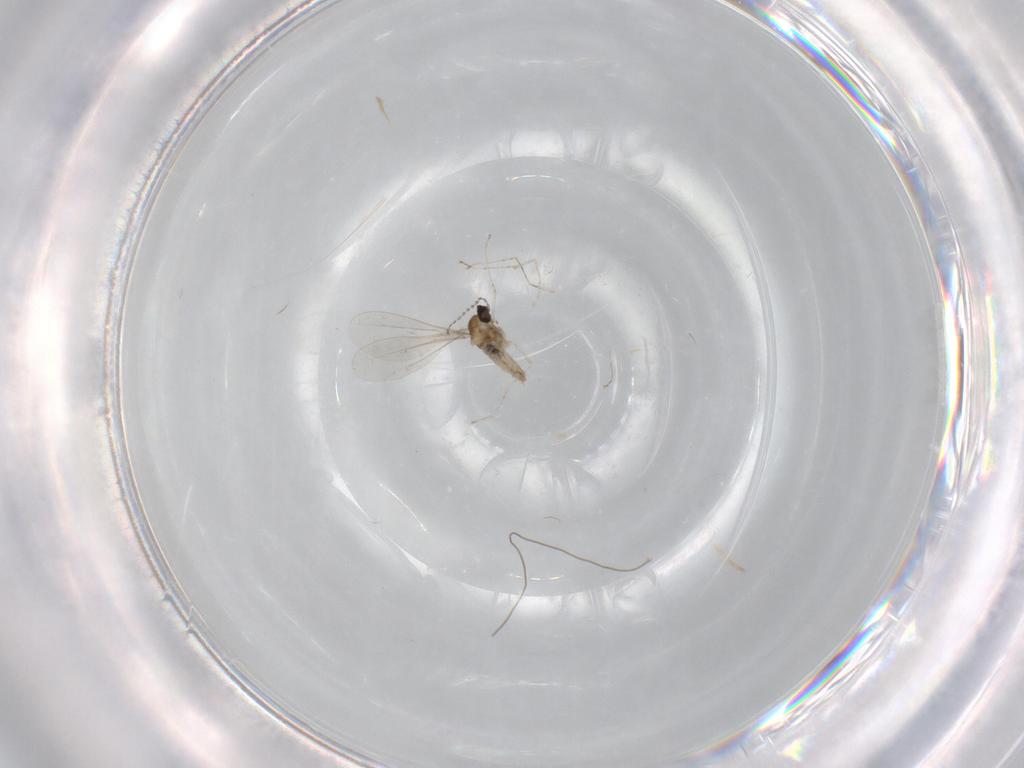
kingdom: Animalia
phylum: Arthropoda
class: Insecta
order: Diptera
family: Cecidomyiidae
